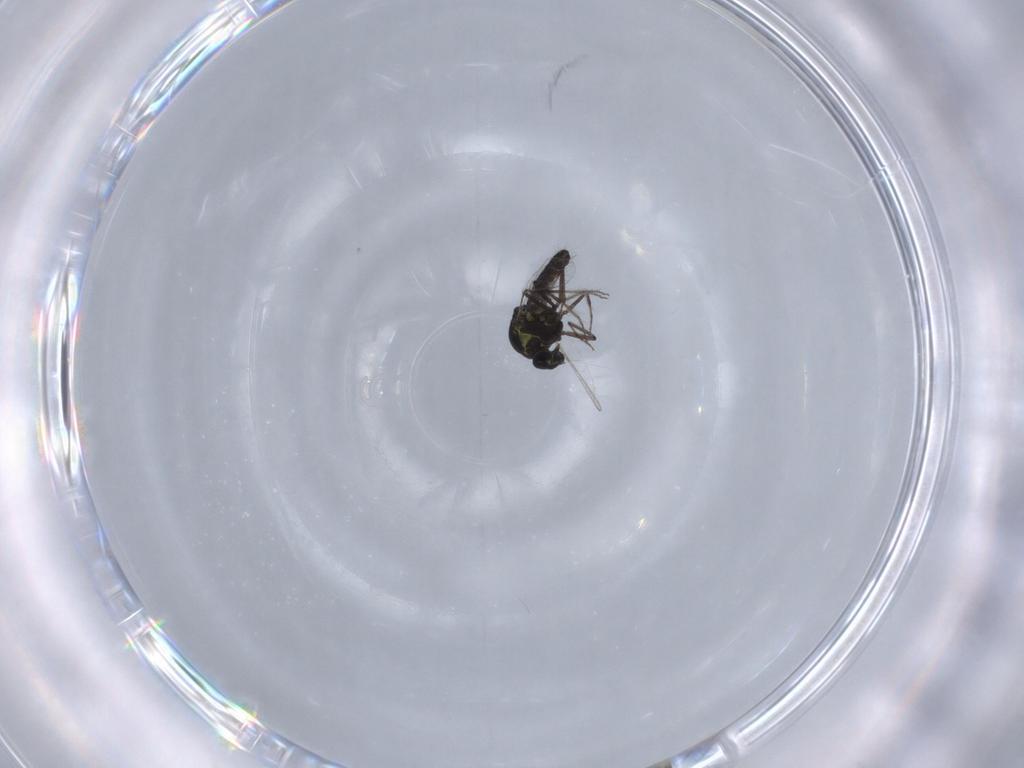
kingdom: Animalia
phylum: Arthropoda
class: Insecta
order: Diptera
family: Ceratopogonidae
